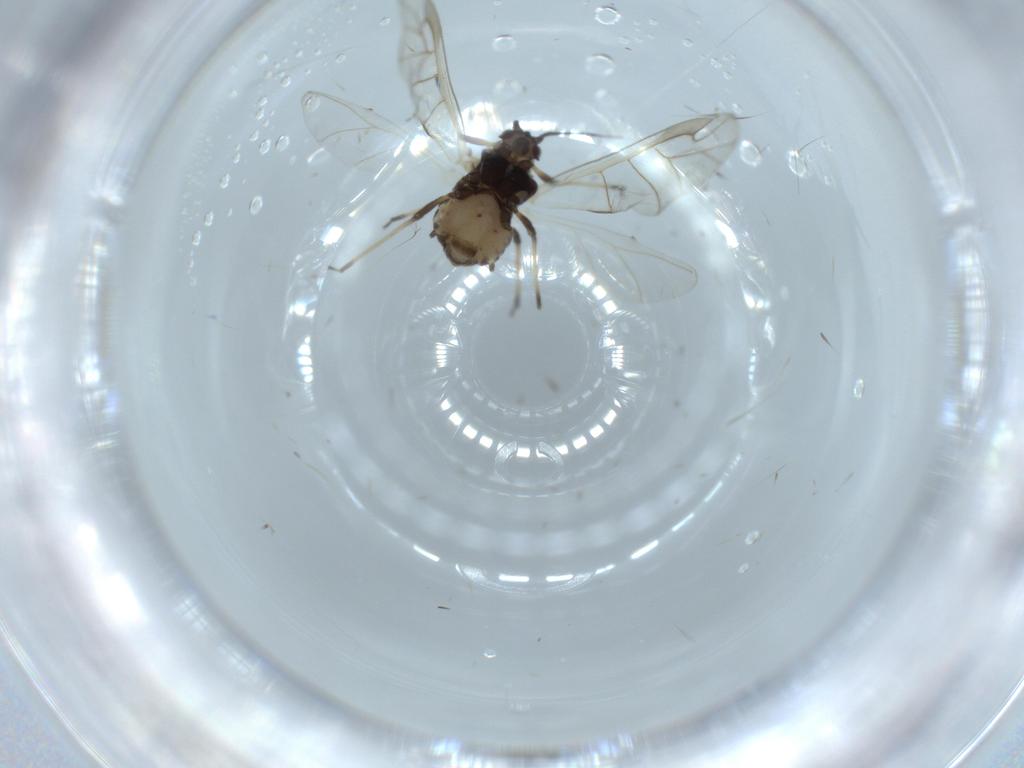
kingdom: Animalia
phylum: Arthropoda
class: Insecta
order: Hemiptera
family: Aphididae
